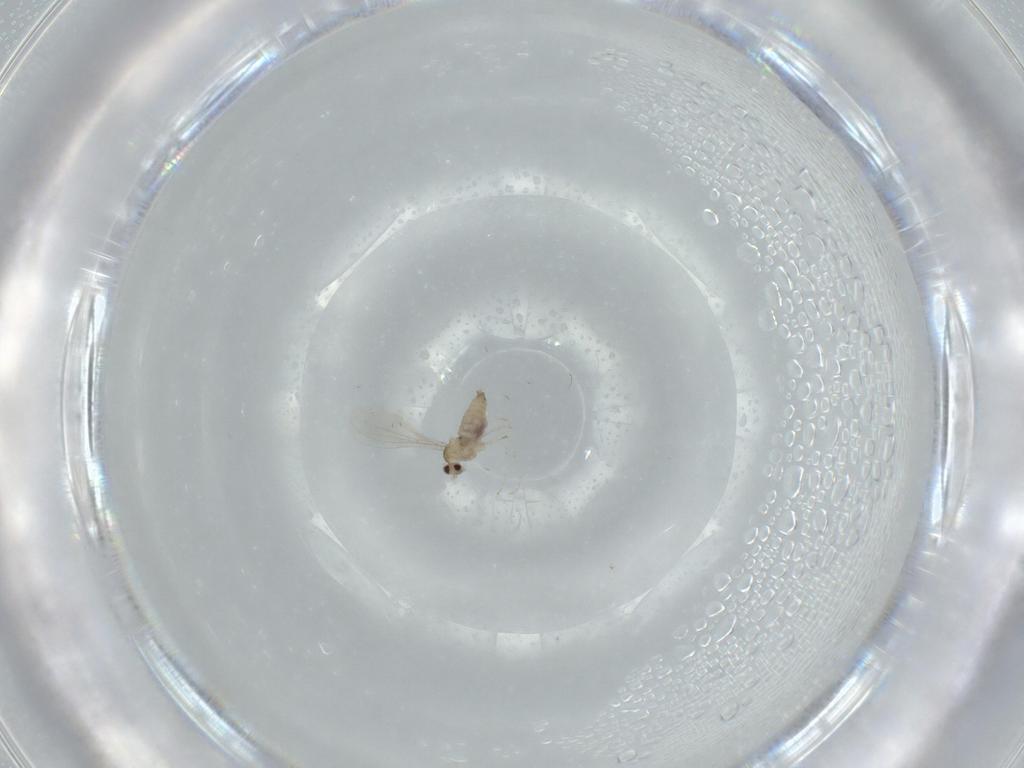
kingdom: Animalia
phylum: Arthropoda
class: Insecta
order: Diptera
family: Cecidomyiidae
